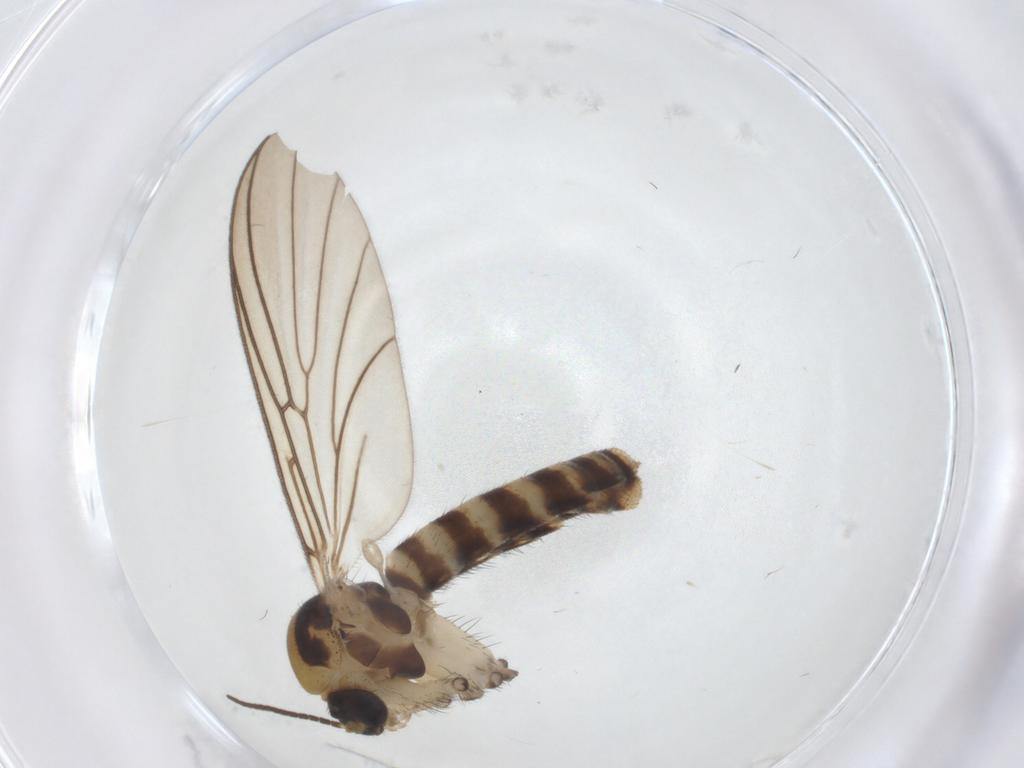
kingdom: Animalia
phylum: Arthropoda
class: Insecta
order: Diptera
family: Mycetophilidae
